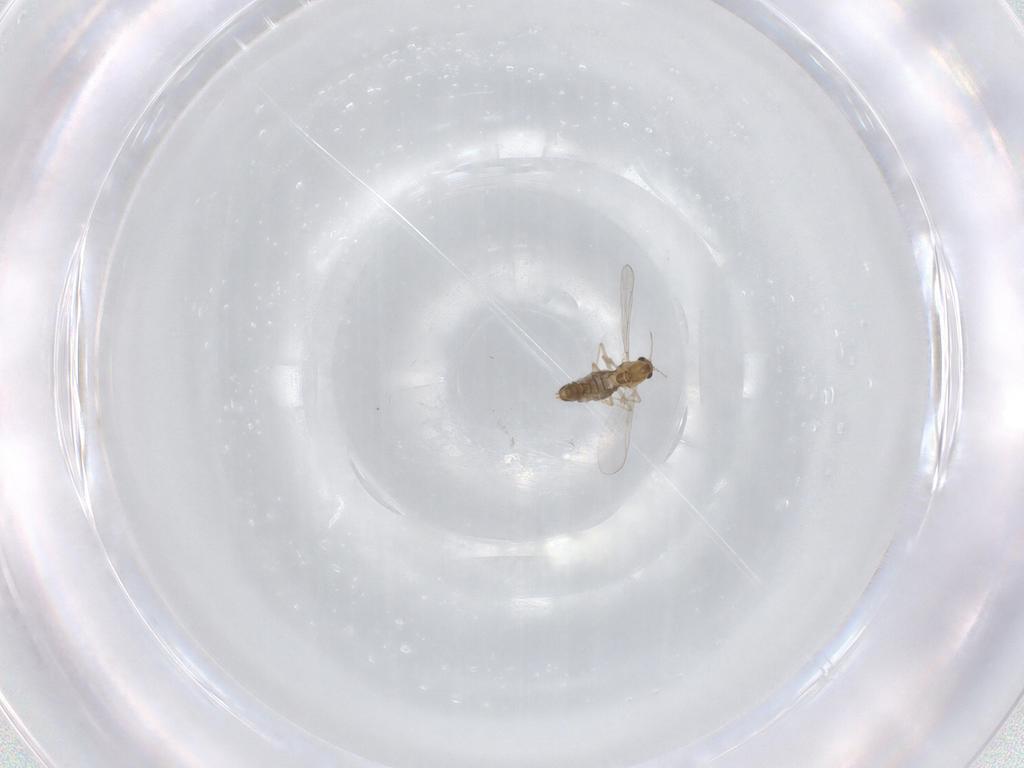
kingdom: Animalia
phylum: Arthropoda
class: Insecta
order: Diptera
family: Chironomidae
